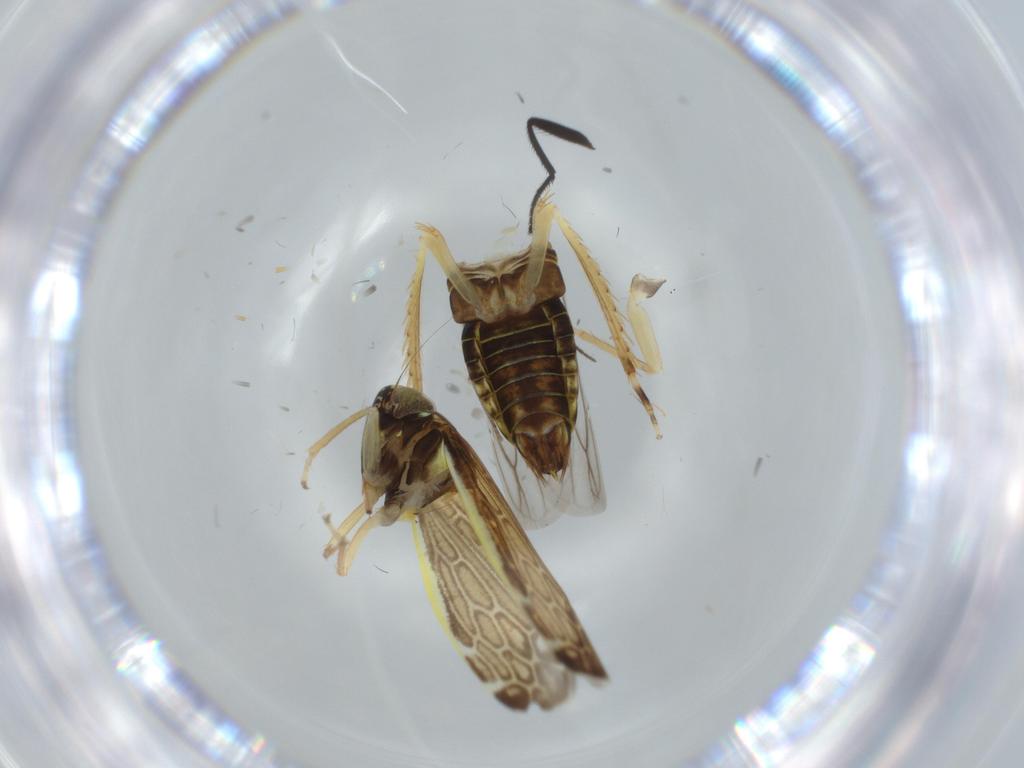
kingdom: Animalia
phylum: Arthropoda
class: Insecta
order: Hemiptera
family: Cicadellidae
